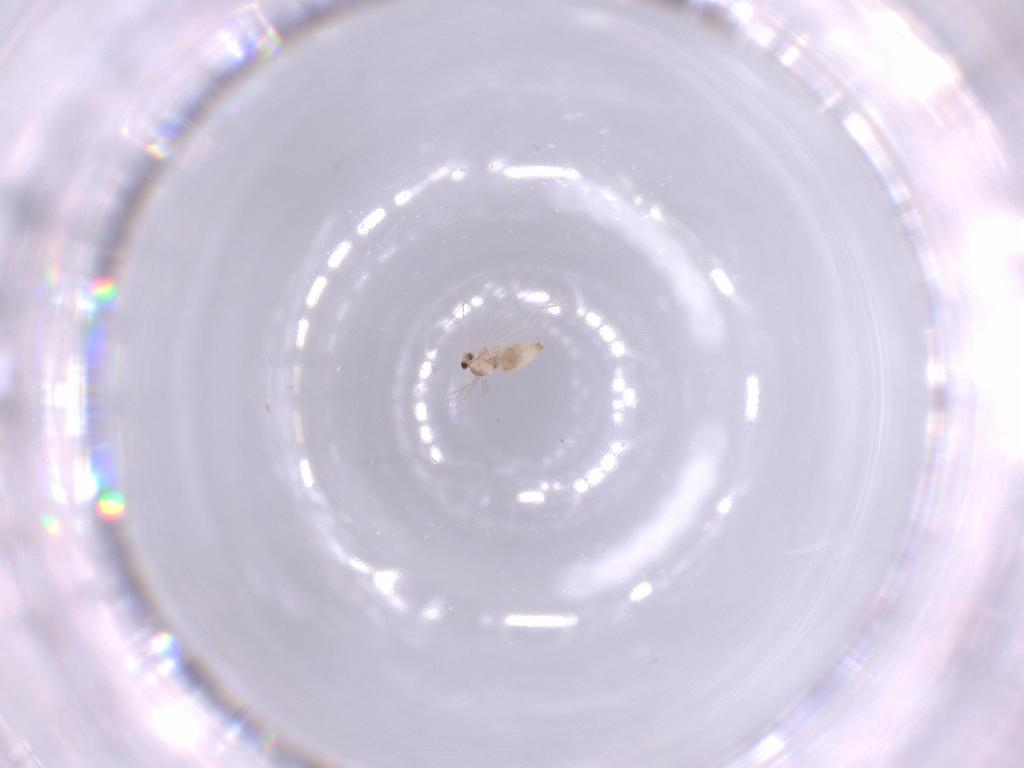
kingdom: Animalia
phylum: Arthropoda
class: Insecta
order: Diptera
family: Cecidomyiidae
